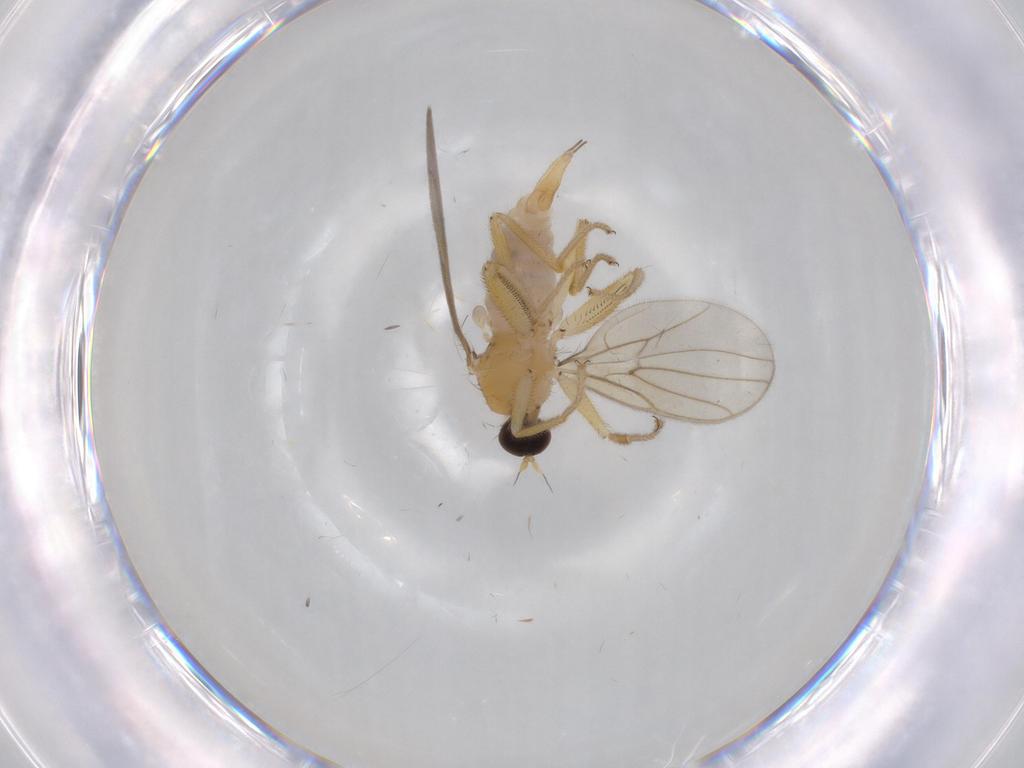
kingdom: Animalia
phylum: Arthropoda
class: Insecta
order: Diptera
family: Hybotidae
